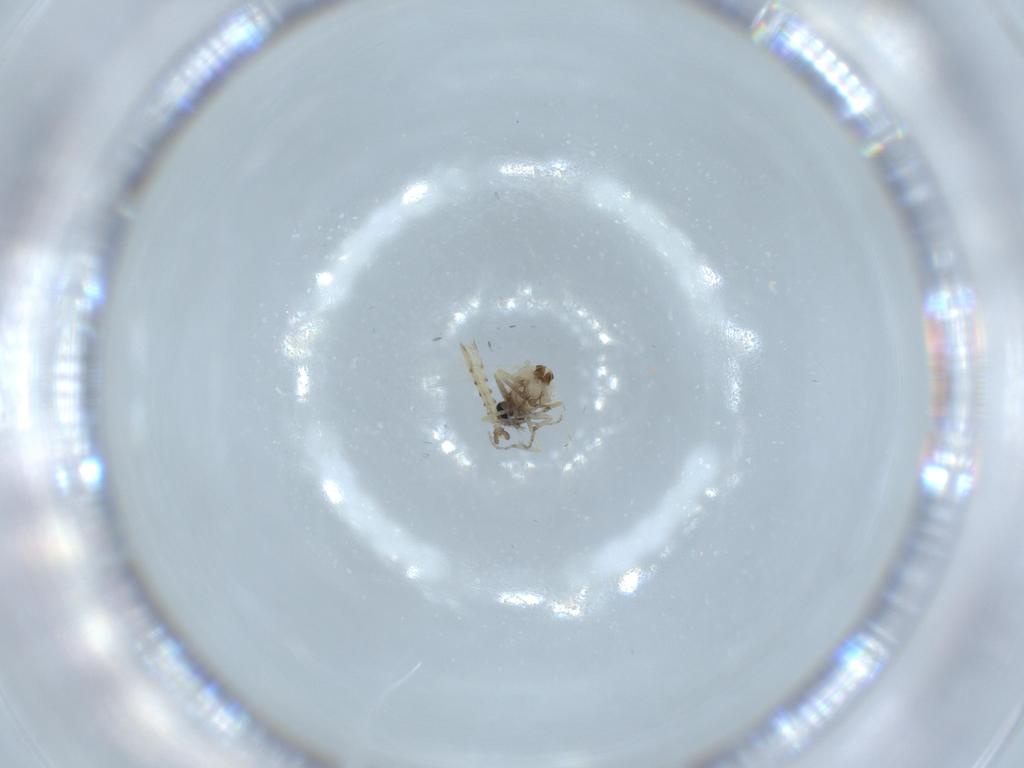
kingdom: Animalia
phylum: Arthropoda
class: Insecta
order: Diptera
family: Ceratopogonidae
